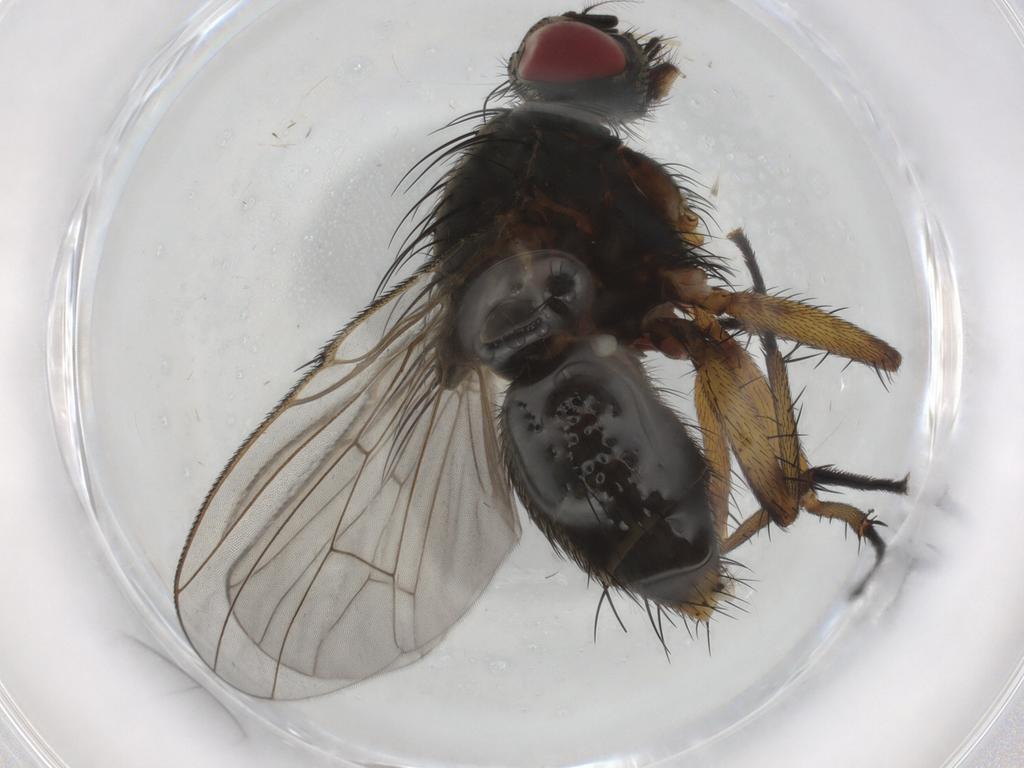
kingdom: Animalia
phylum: Arthropoda
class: Insecta
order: Diptera
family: Muscidae
